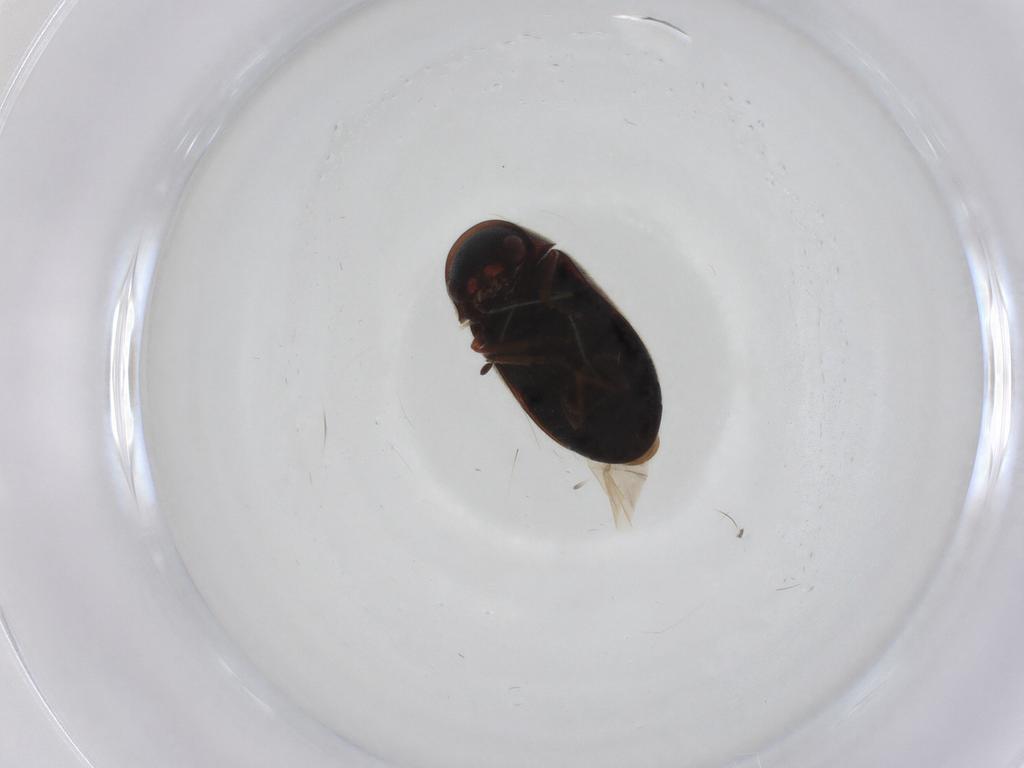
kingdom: Animalia
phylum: Arthropoda
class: Insecta
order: Coleoptera
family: Ptinidae
